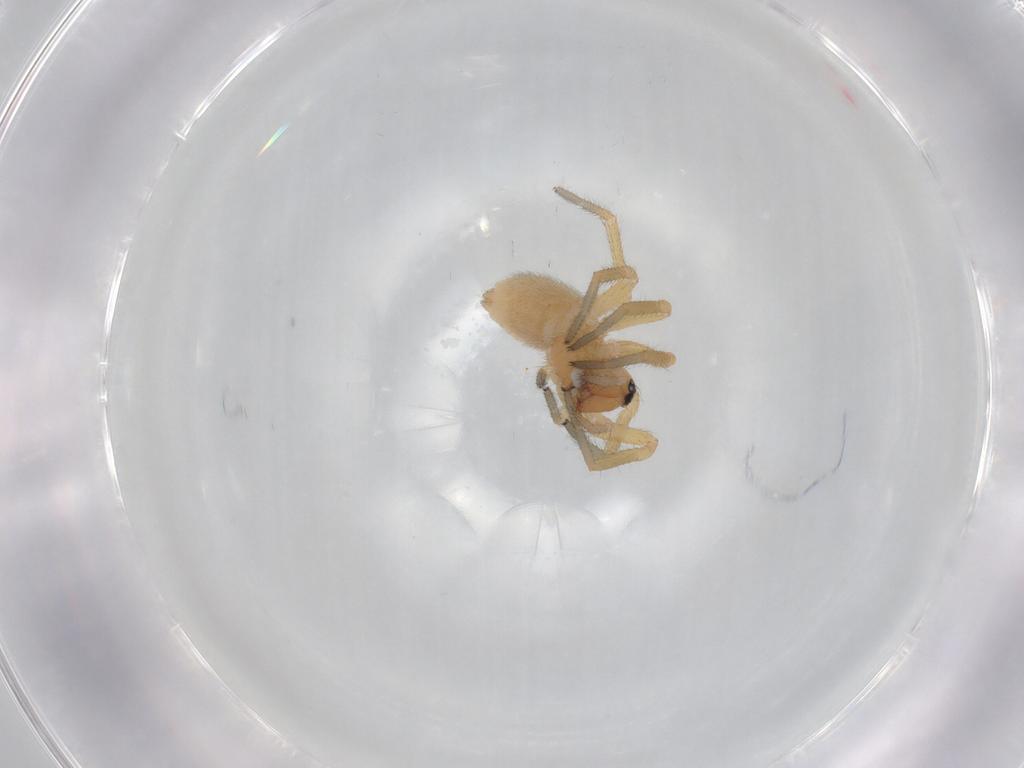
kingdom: Animalia
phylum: Arthropoda
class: Arachnida
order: Araneae
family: Linyphiidae
